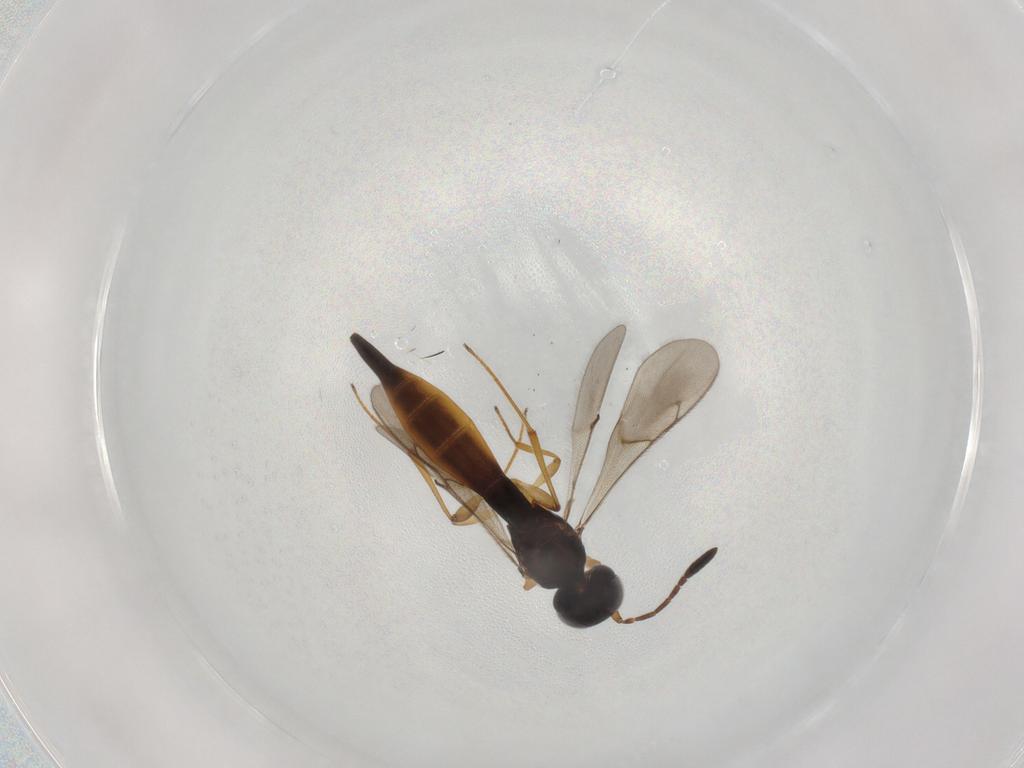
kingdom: Animalia
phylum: Arthropoda
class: Insecta
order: Hymenoptera
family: Scelionidae
